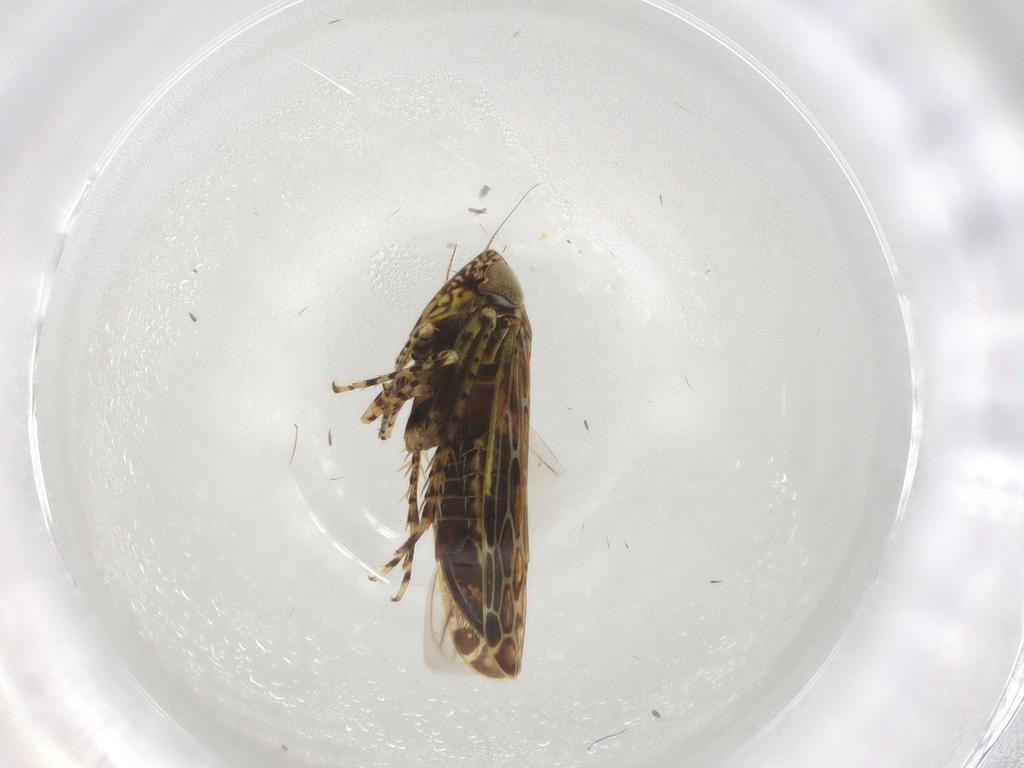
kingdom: Animalia
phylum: Arthropoda
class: Insecta
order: Hemiptera
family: Cicadellidae
